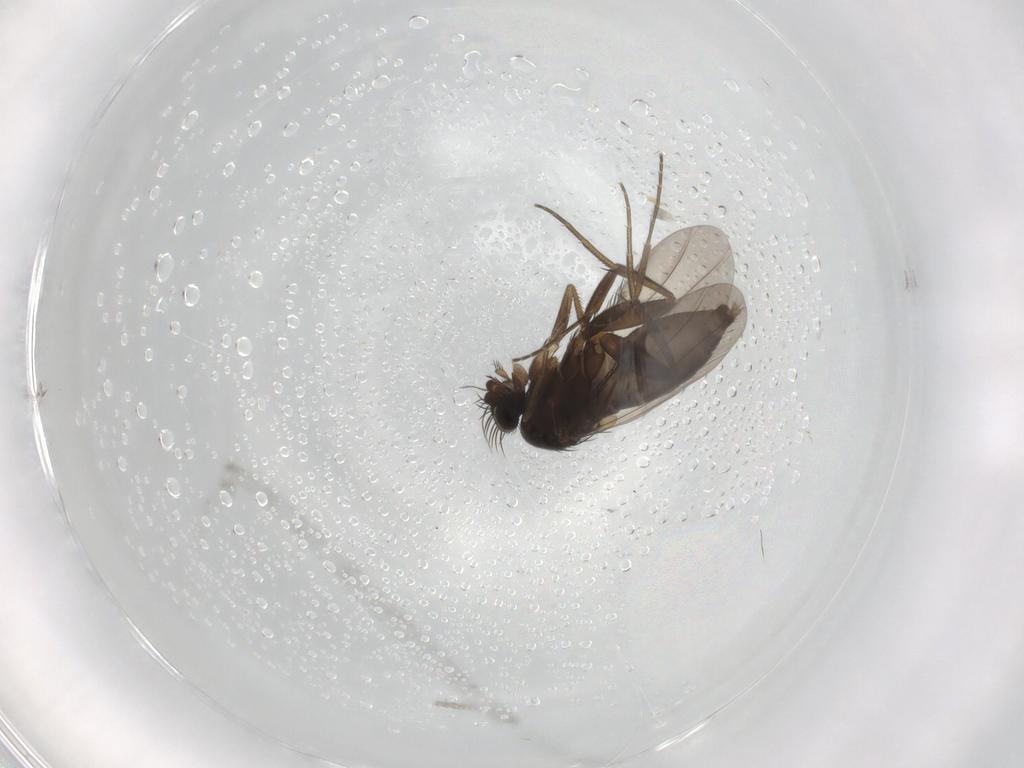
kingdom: Animalia
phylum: Arthropoda
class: Insecta
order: Diptera
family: Phoridae
